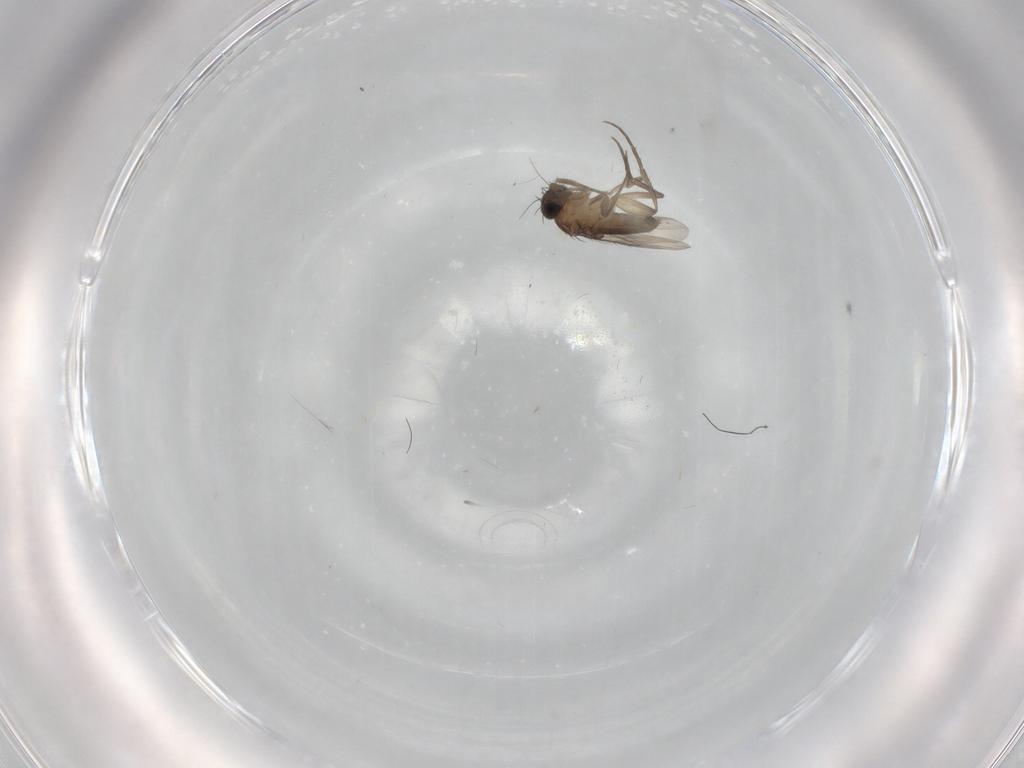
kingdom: Animalia
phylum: Arthropoda
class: Insecta
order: Diptera
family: Phoridae
